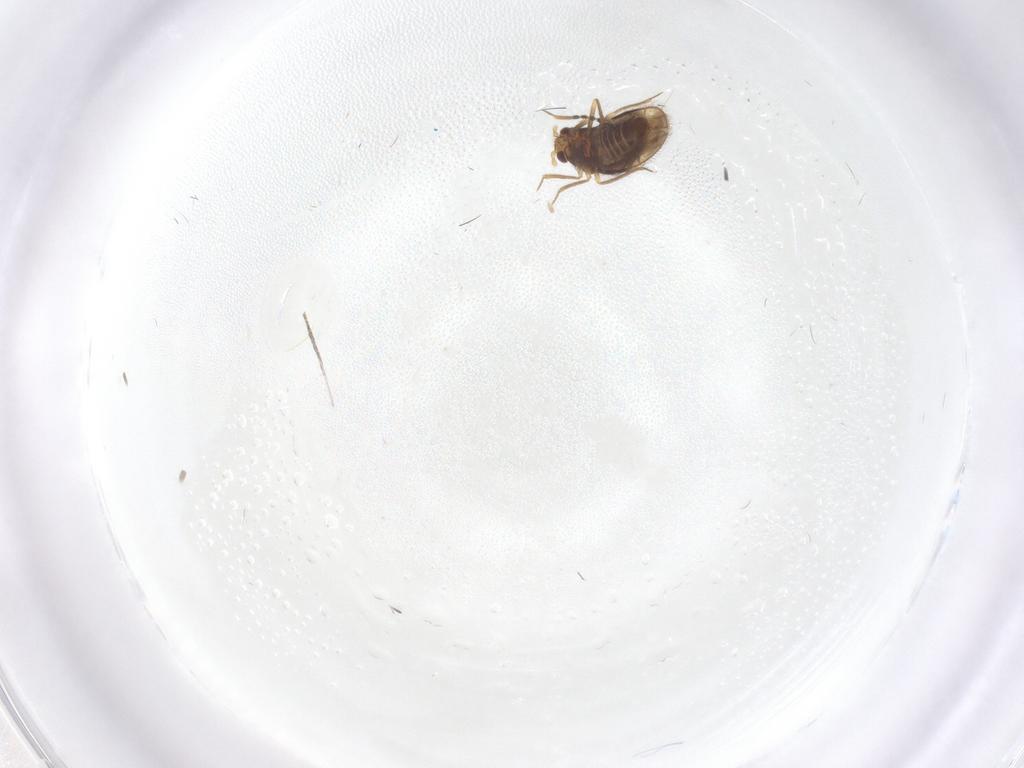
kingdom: Animalia
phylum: Arthropoda
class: Insecta
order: Hemiptera
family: Schizopteridae
